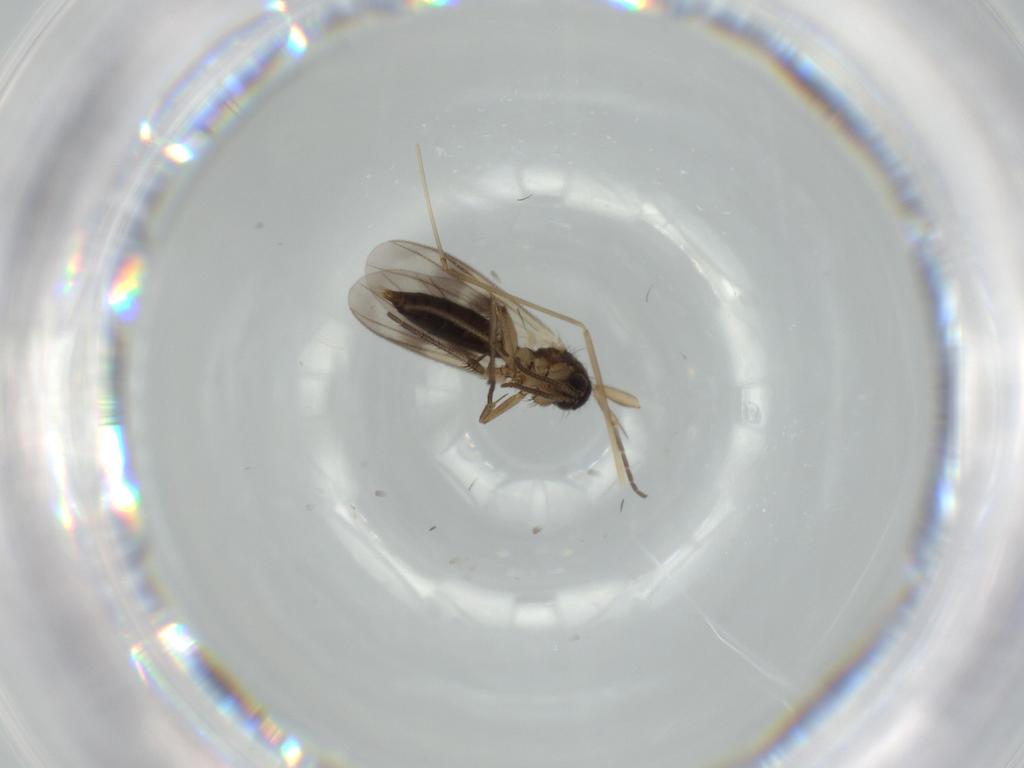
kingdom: Animalia
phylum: Arthropoda
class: Insecta
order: Diptera
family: Ephydridae
